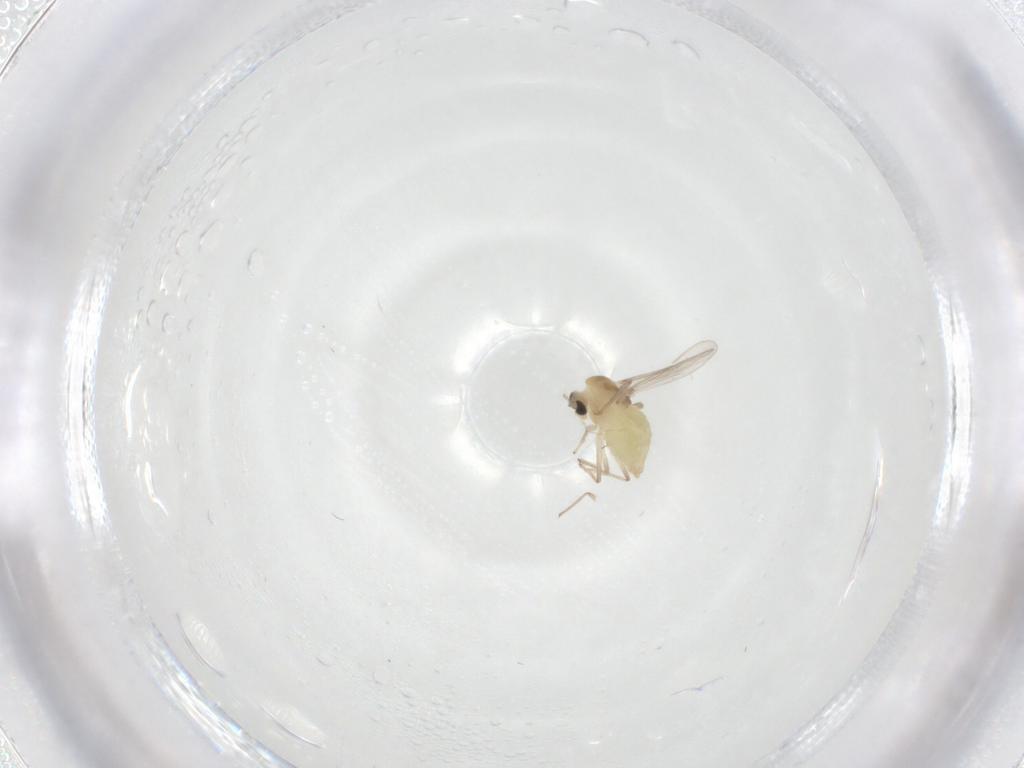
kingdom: Animalia
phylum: Arthropoda
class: Insecta
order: Diptera
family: Chironomidae
